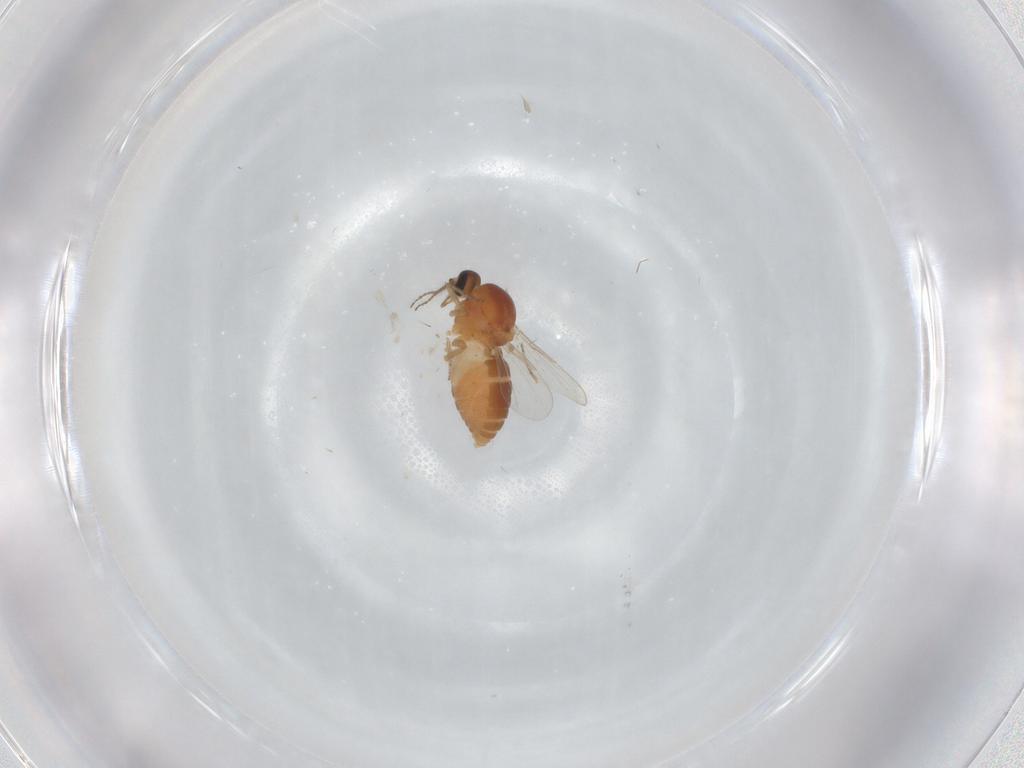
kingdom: Animalia
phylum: Arthropoda
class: Insecta
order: Diptera
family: Ceratopogonidae
